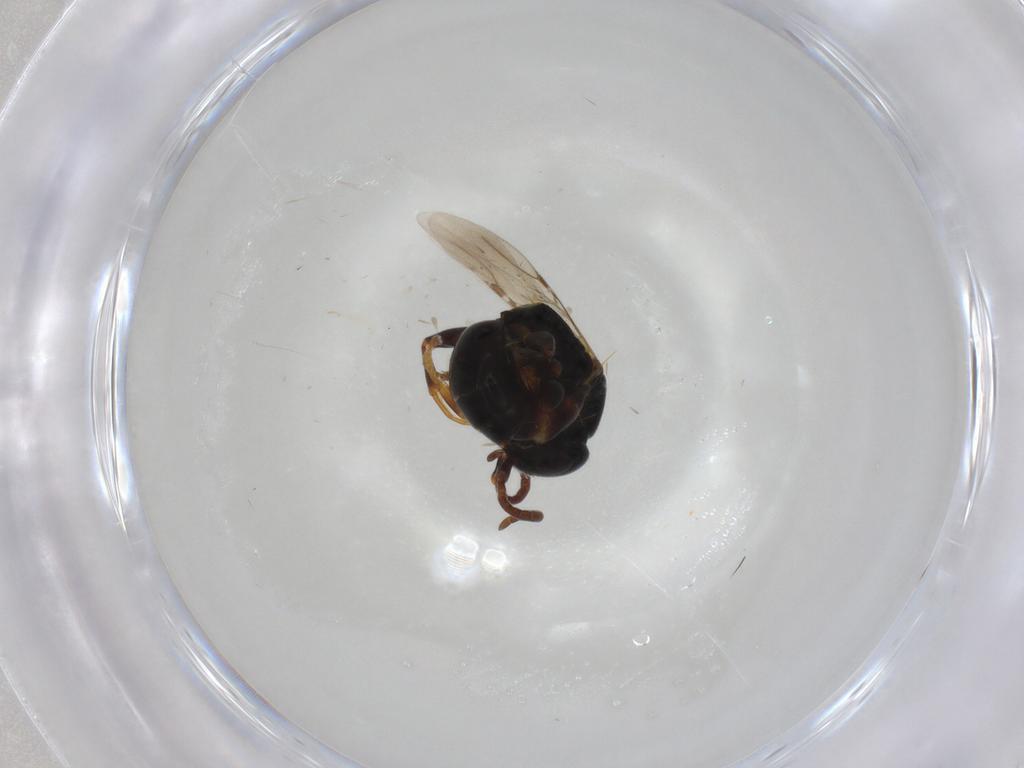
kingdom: Animalia
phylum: Arthropoda
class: Insecta
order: Hymenoptera
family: Bethylidae
